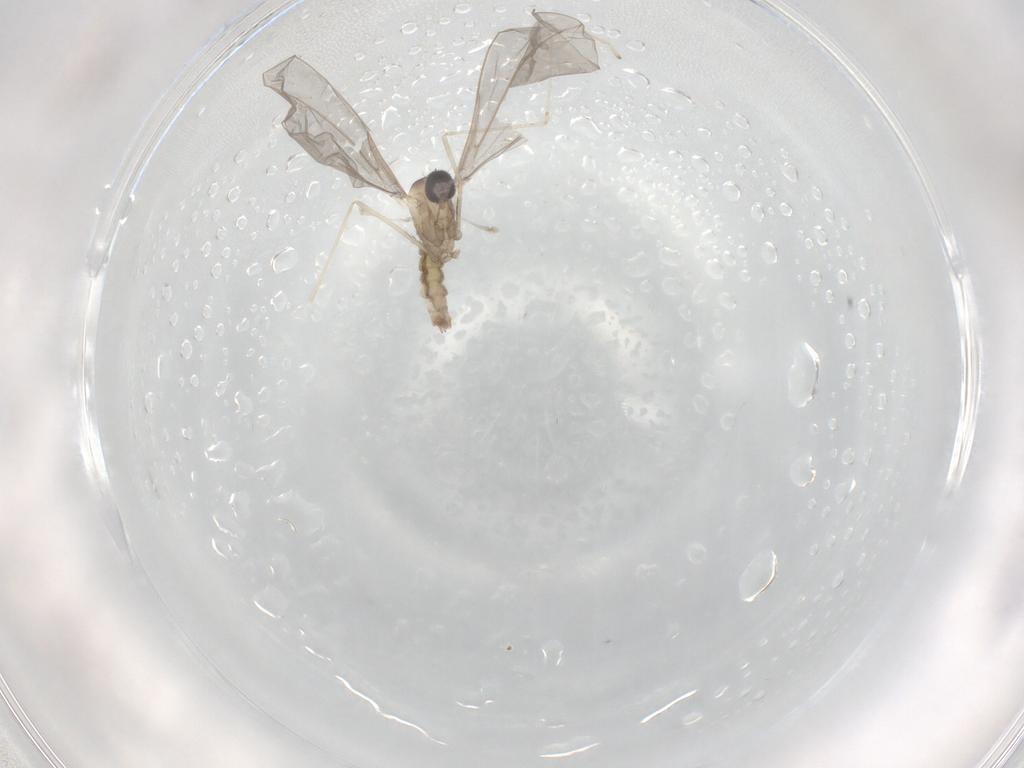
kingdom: Animalia
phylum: Arthropoda
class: Insecta
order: Diptera
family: Cecidomyiidae
